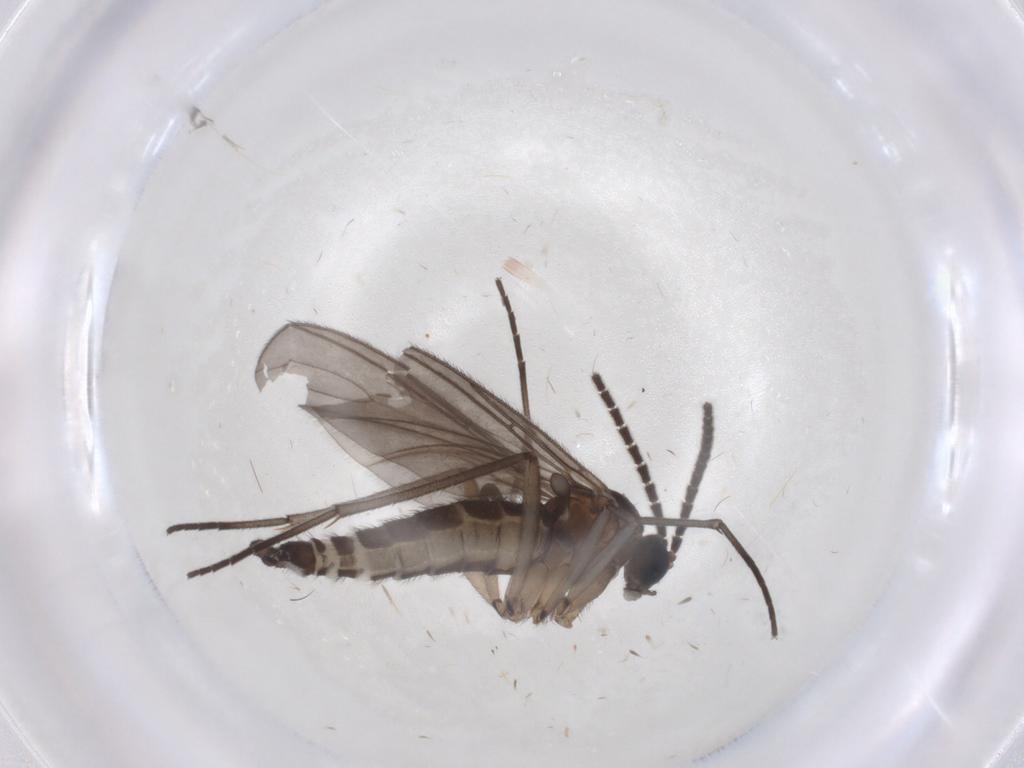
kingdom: Animalia
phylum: Arthropoda
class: Insecta
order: Diptera
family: Sciaridae
